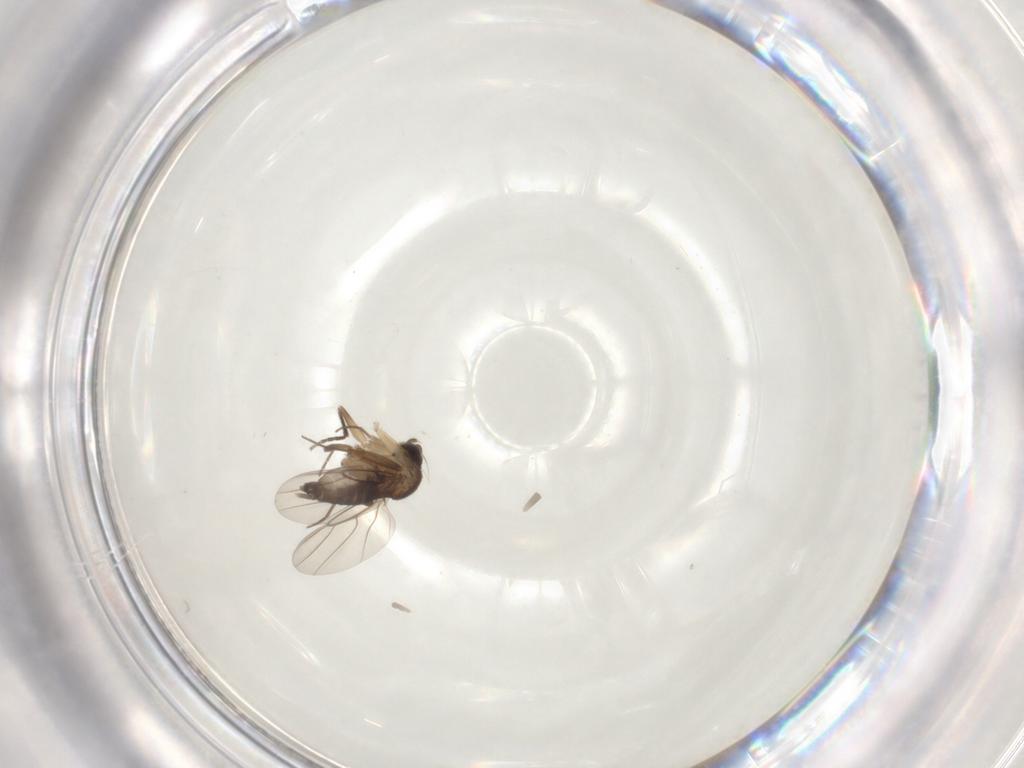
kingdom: Animalia
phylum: Arthropoda
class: Insecta
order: Diptera
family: Phoridae
